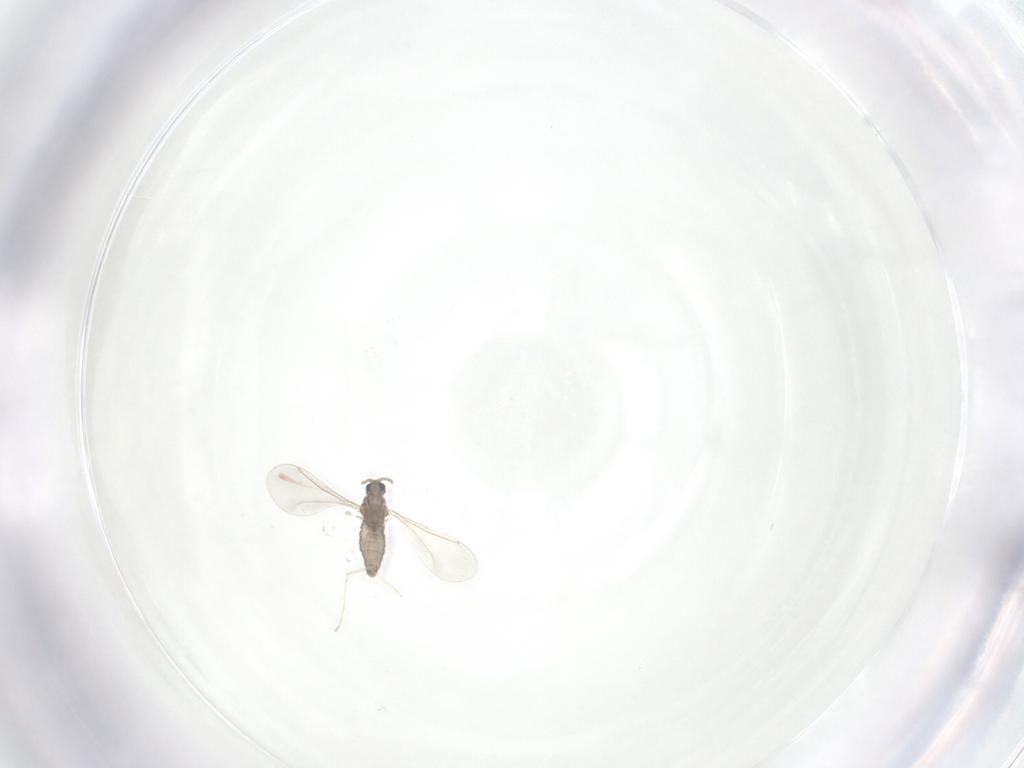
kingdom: Animalia
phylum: Arthropoda
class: Insecta
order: Diptera
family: Cecidomyiidae
